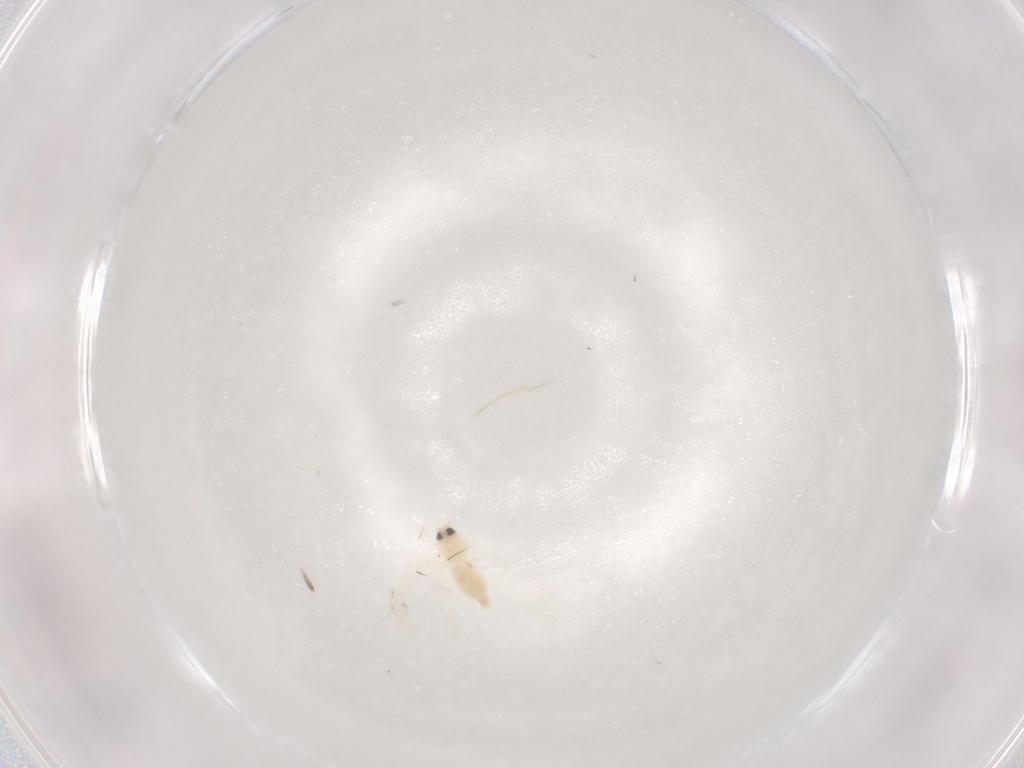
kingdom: Animalia
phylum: Arthropoda
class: Insecta
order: Hemiptera
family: Aleyrodidae
